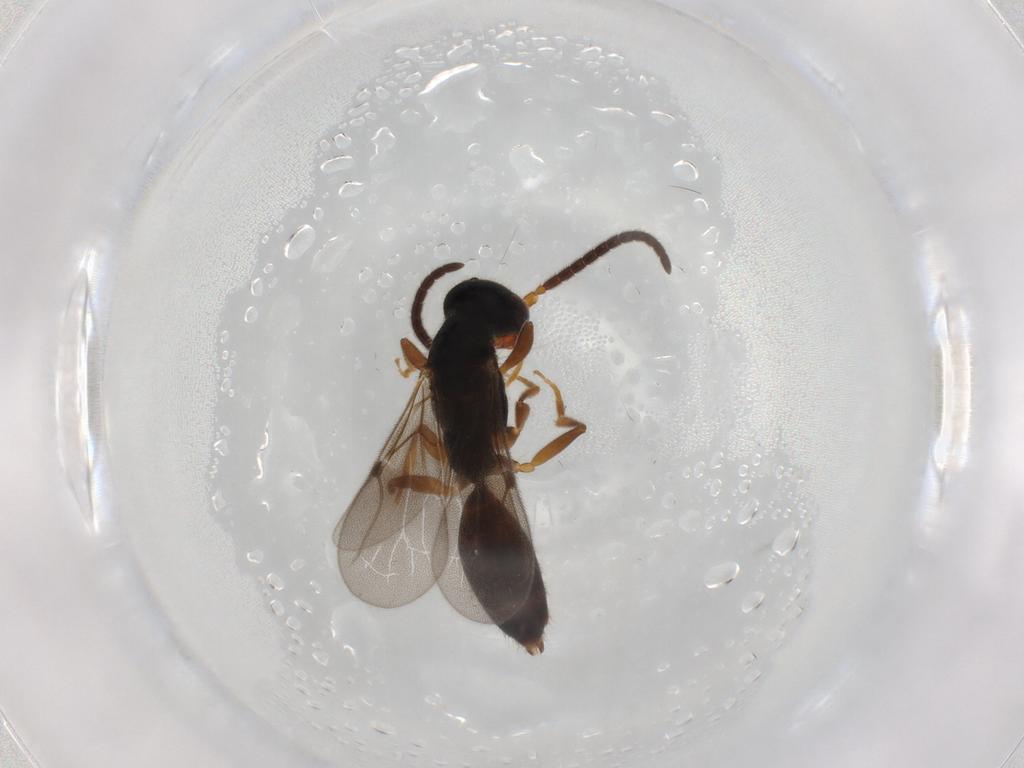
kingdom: Animalia
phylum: Arthropoda
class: Insecta
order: Hymenoptera
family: Bethylidae
